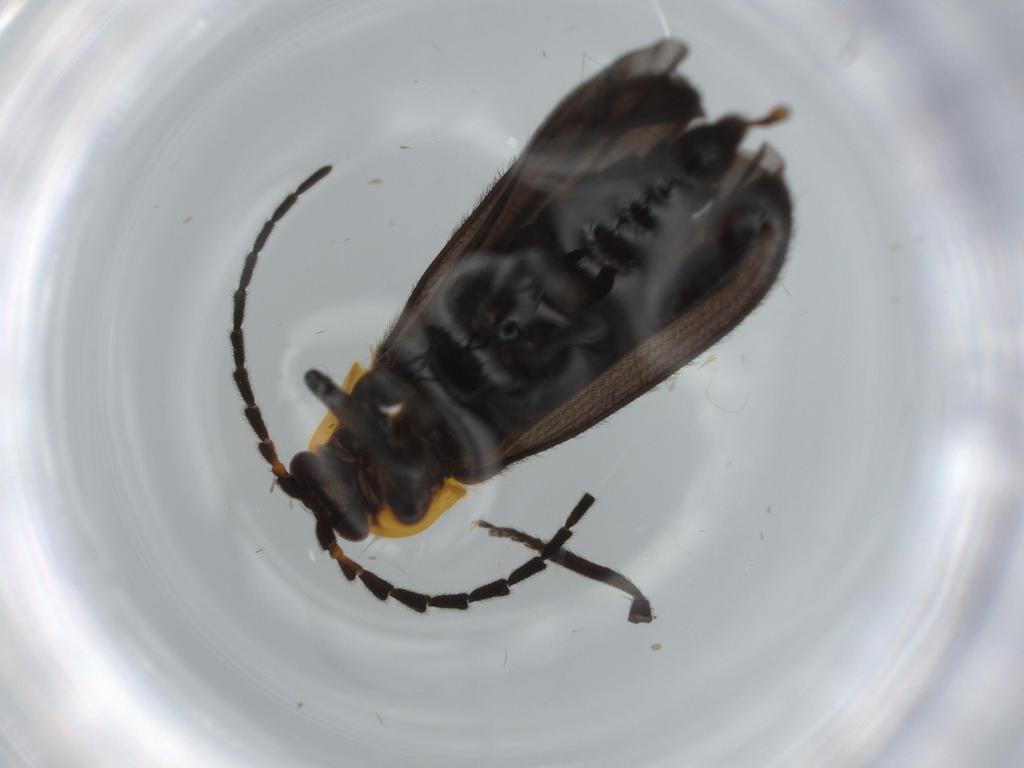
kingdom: Animalia
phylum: Arthropoda
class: Insecta
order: Coleoptera
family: Lycidae
